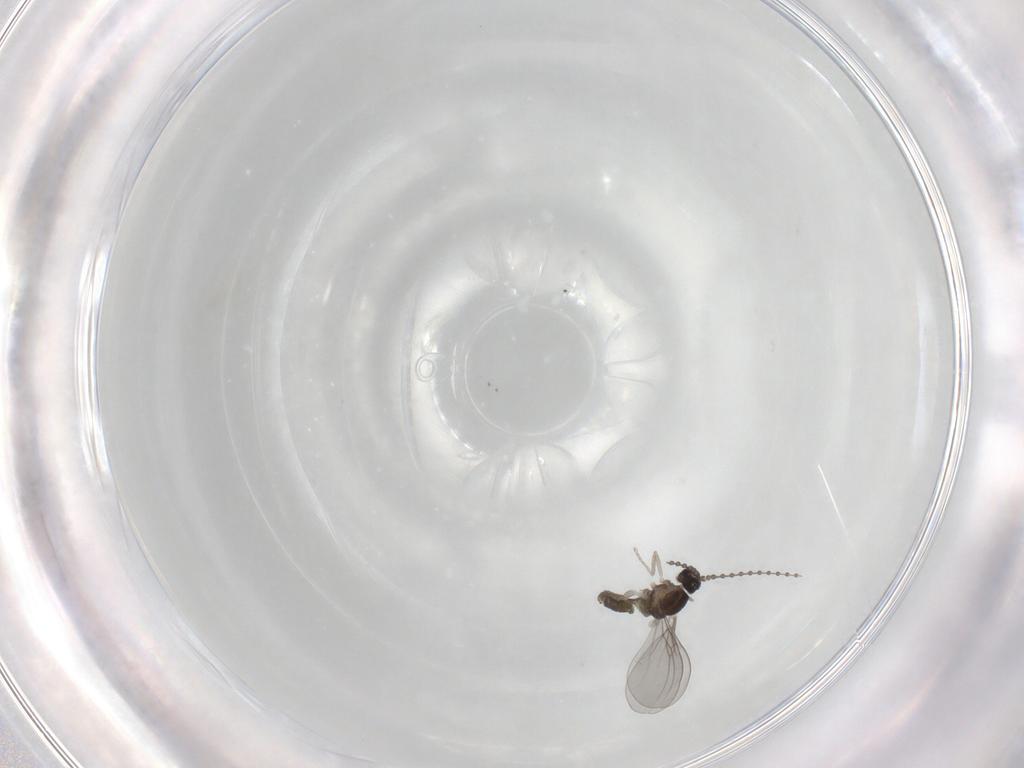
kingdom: Animalia
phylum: Arthropoda
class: Insecta
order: Diptera
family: Cecidomyiidae
